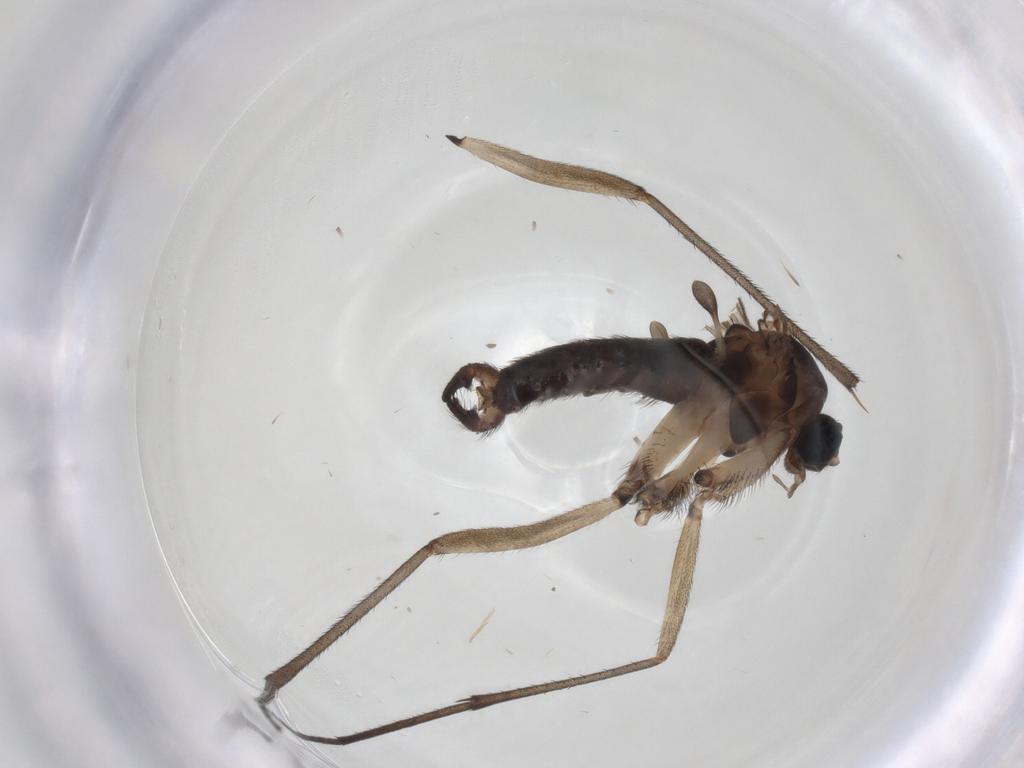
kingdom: Animalia
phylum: Arthropoda
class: Insecta
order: Diptera
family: Sciaridae
